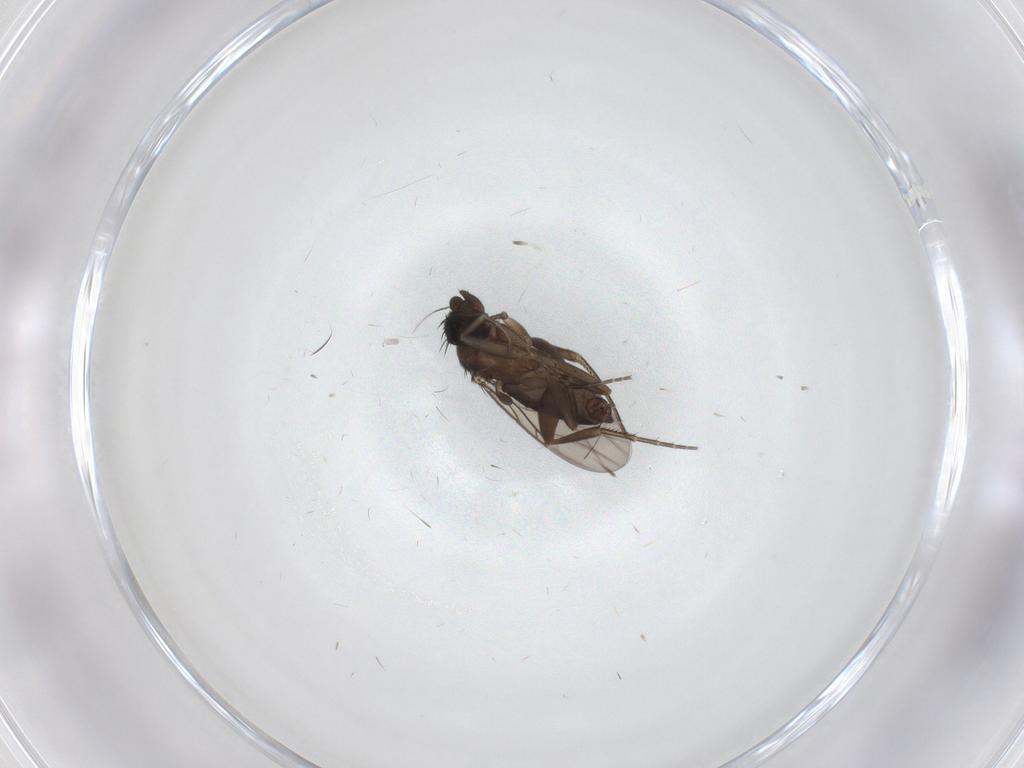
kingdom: Animalia
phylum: Arthropoda
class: Insecta
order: Diptera
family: Phoridae
